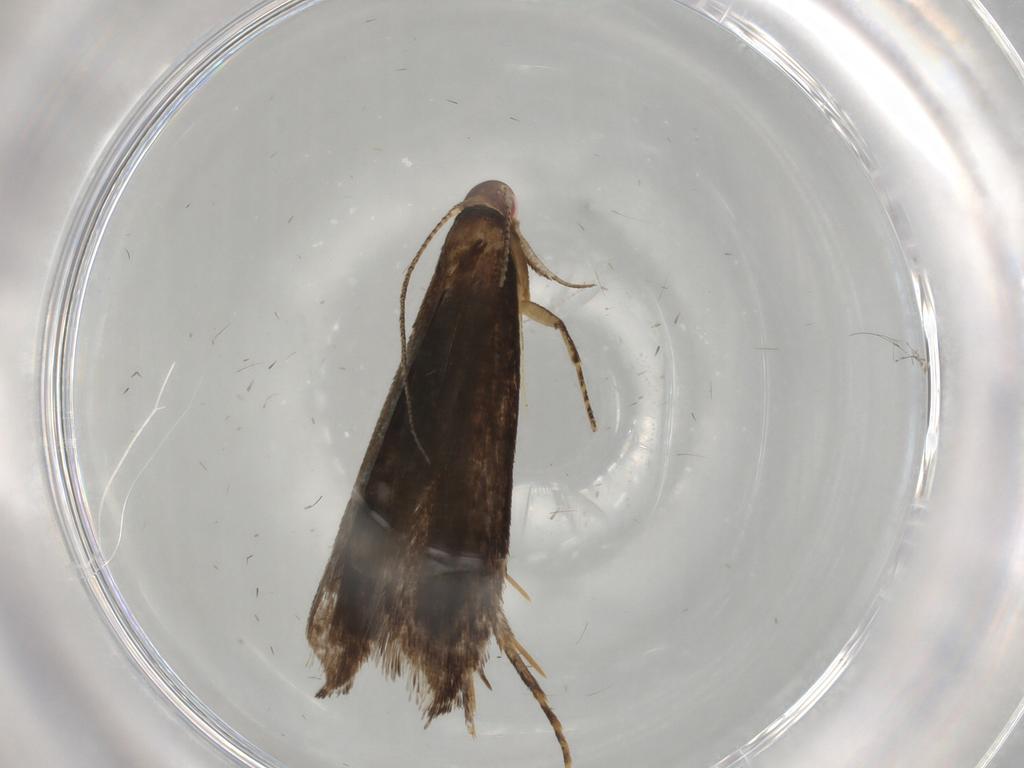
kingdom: Animalia
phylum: Arthropoda
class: Insecta
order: Lepidoptera
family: Gelechiidae
